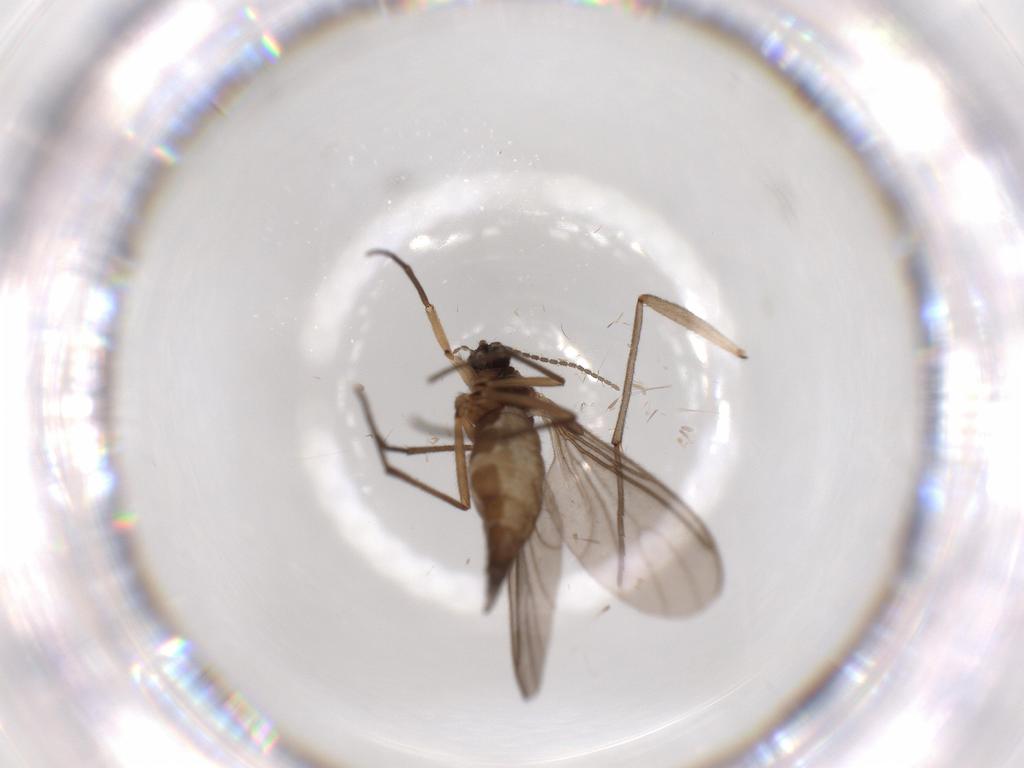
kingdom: Animalia
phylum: Arthropoda
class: Insecta
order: Diptera
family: Sciaridae
